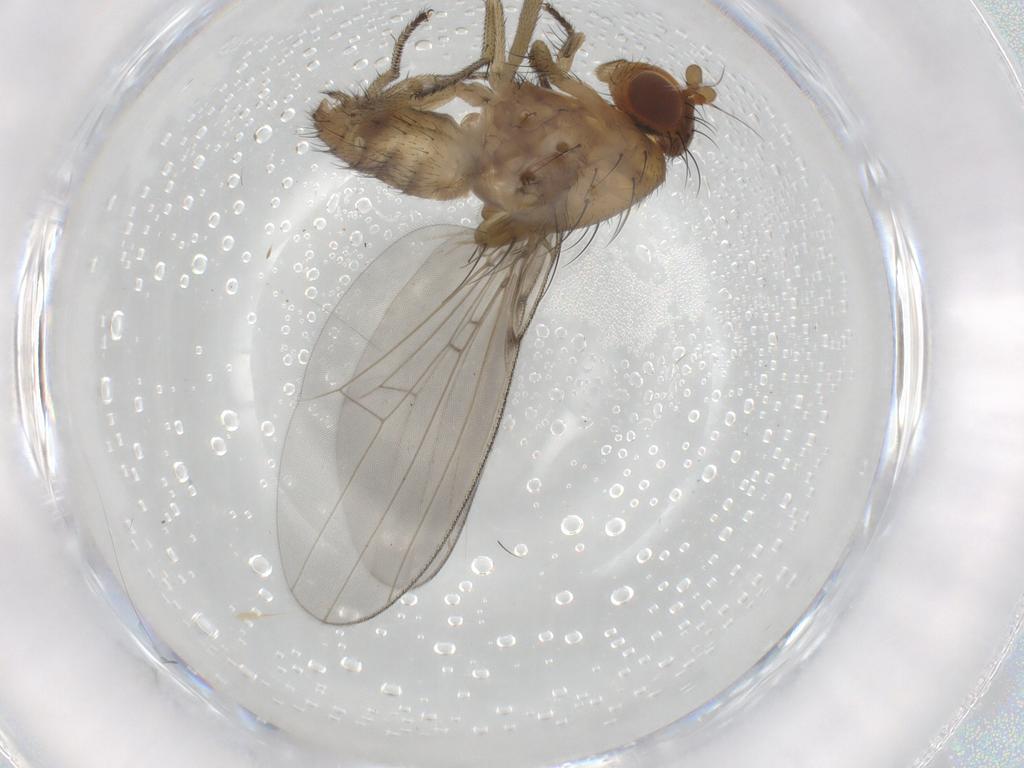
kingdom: Animalia
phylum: Arthropoda
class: Insecta
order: Diptera
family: Lauxaniidae
